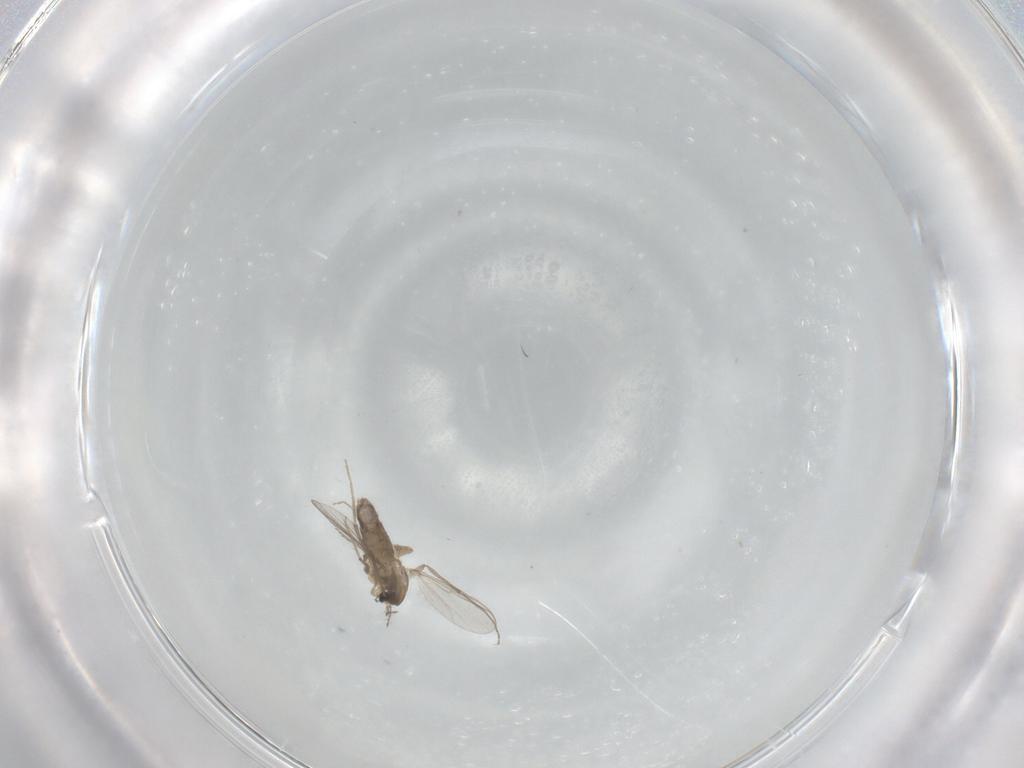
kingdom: Animalia
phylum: Arthropoda
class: Insecta
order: Diptera
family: Chironomidae
